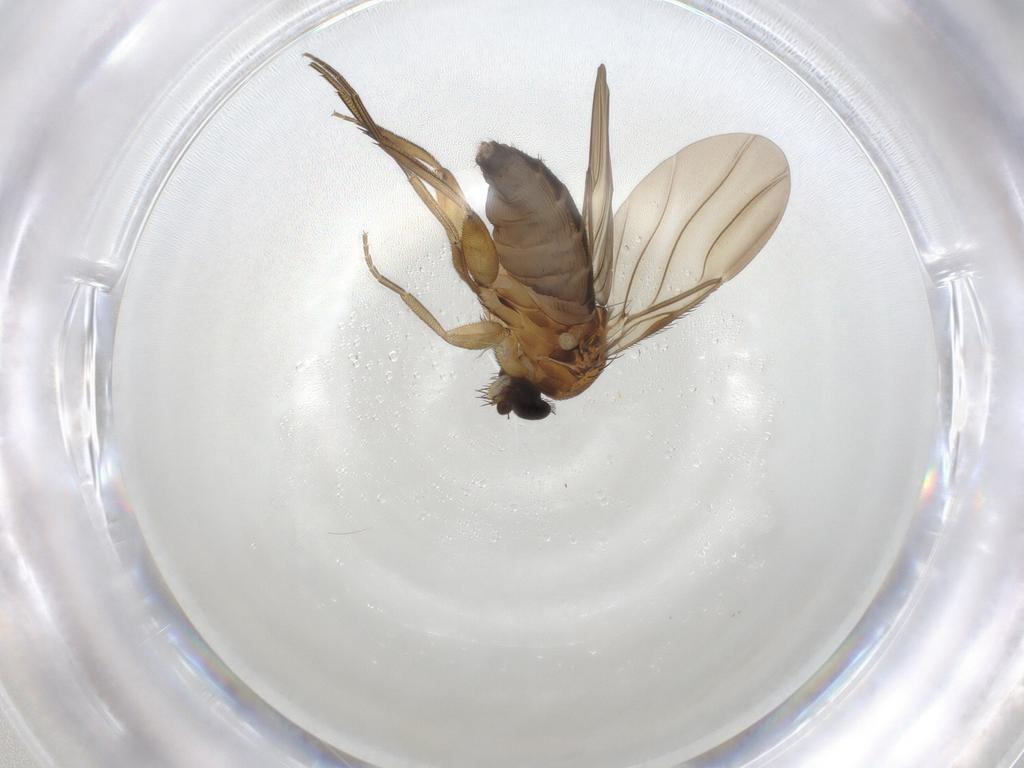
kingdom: Animalia
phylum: Arthropoda
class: Insecta
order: Diptera
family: Phoridae
